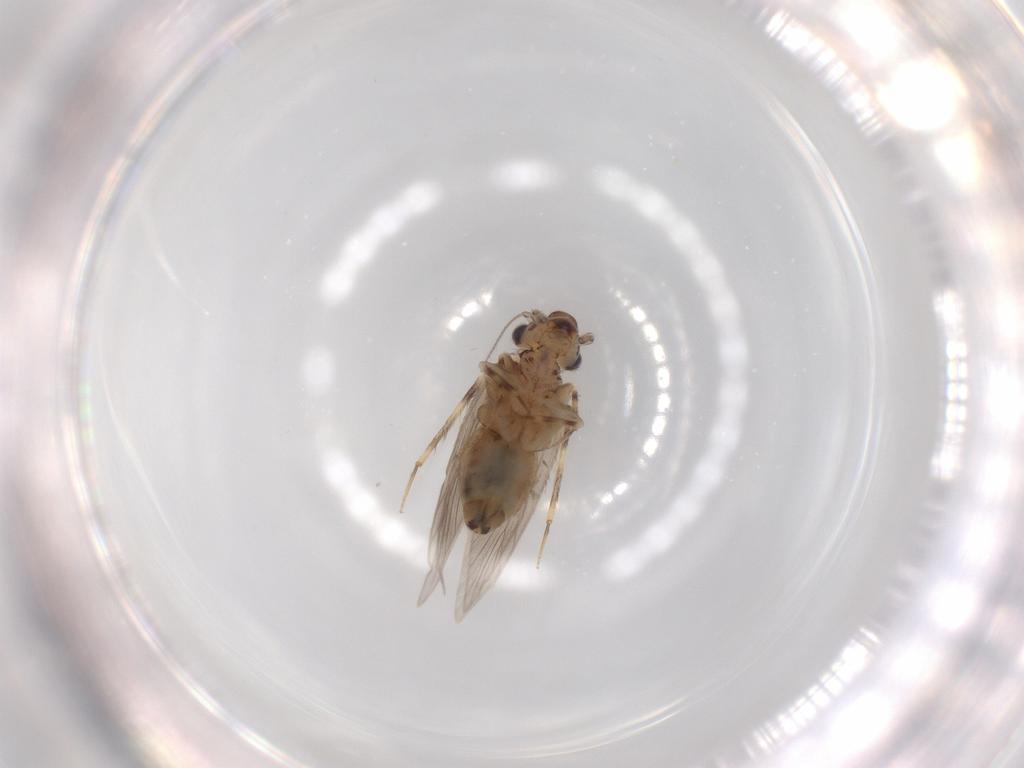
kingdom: Animalia
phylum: Arthropoda
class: Insecta
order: Psocodea
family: Lepidopsocidae
